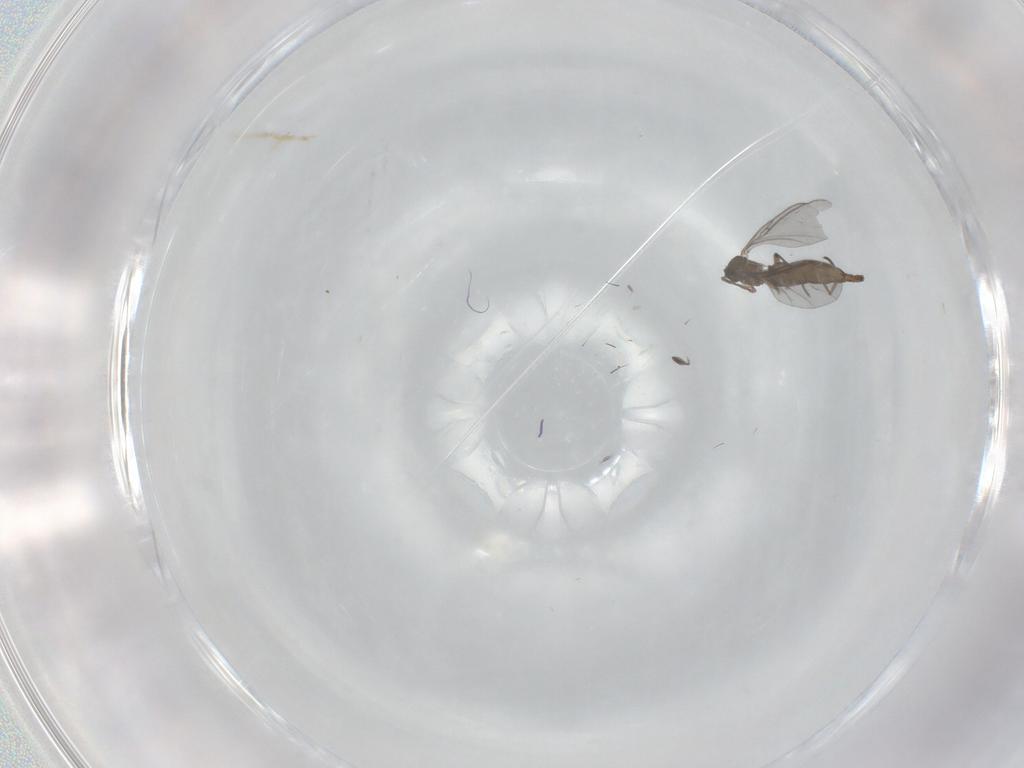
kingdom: Animalia
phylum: Arthropoda
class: Insecta
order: Diptera
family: Sciaridae
